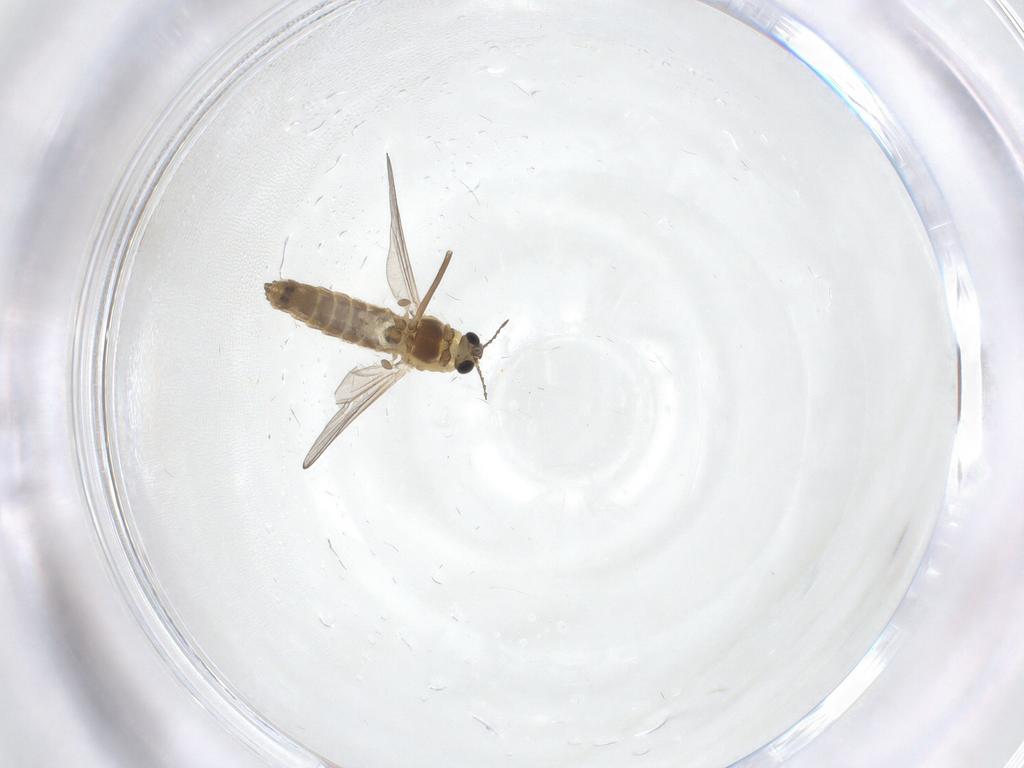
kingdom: Animalia
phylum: Arthropoda
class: Insecta
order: Diptera
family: Chironomidae
